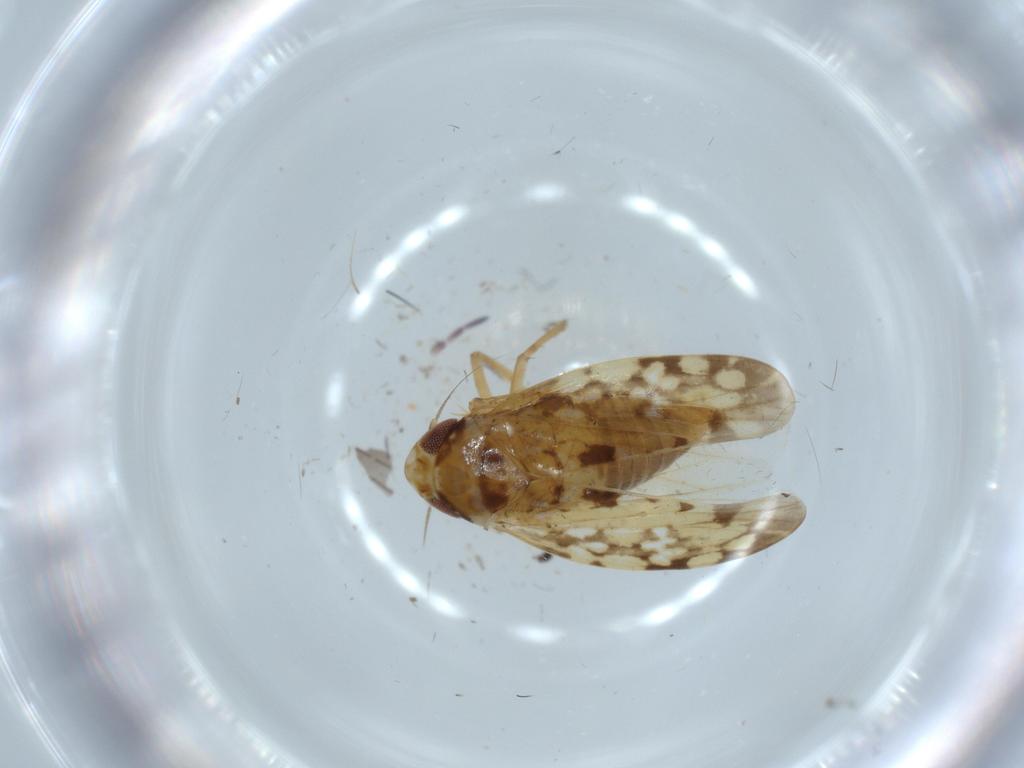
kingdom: Animalia
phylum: Arthropoda
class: Insecta
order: Hemiptera
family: Cicadellidae
